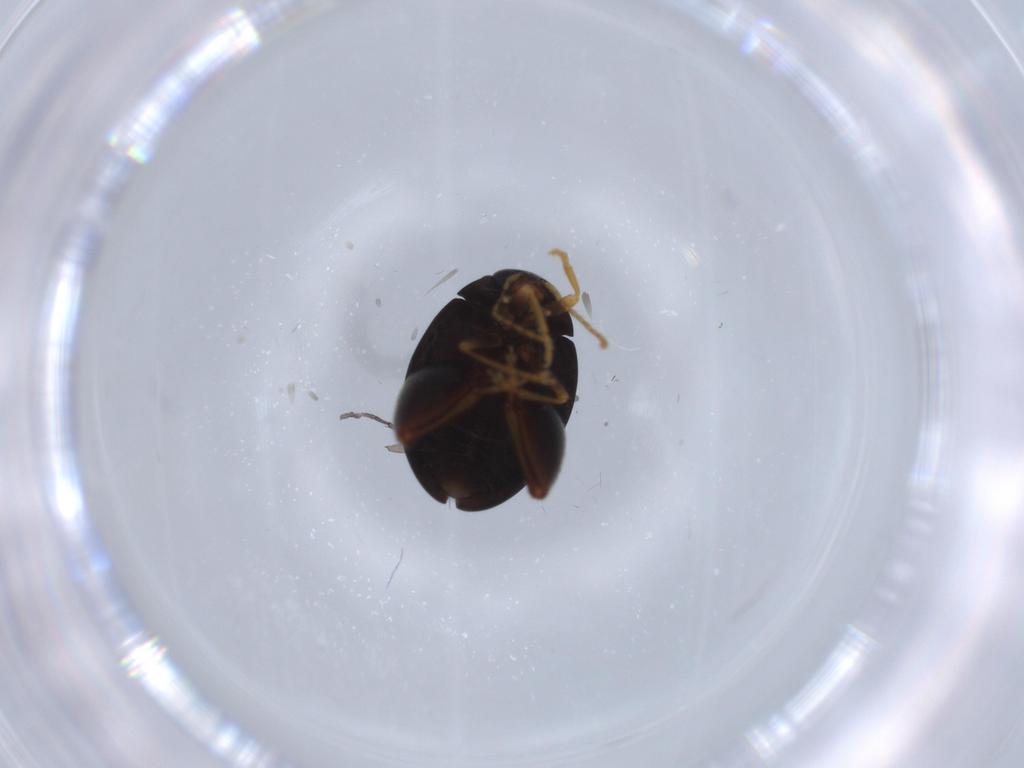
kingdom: Animalia
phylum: Arthropoda
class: Insecta
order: Coleoptera
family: Chrysomelidae
